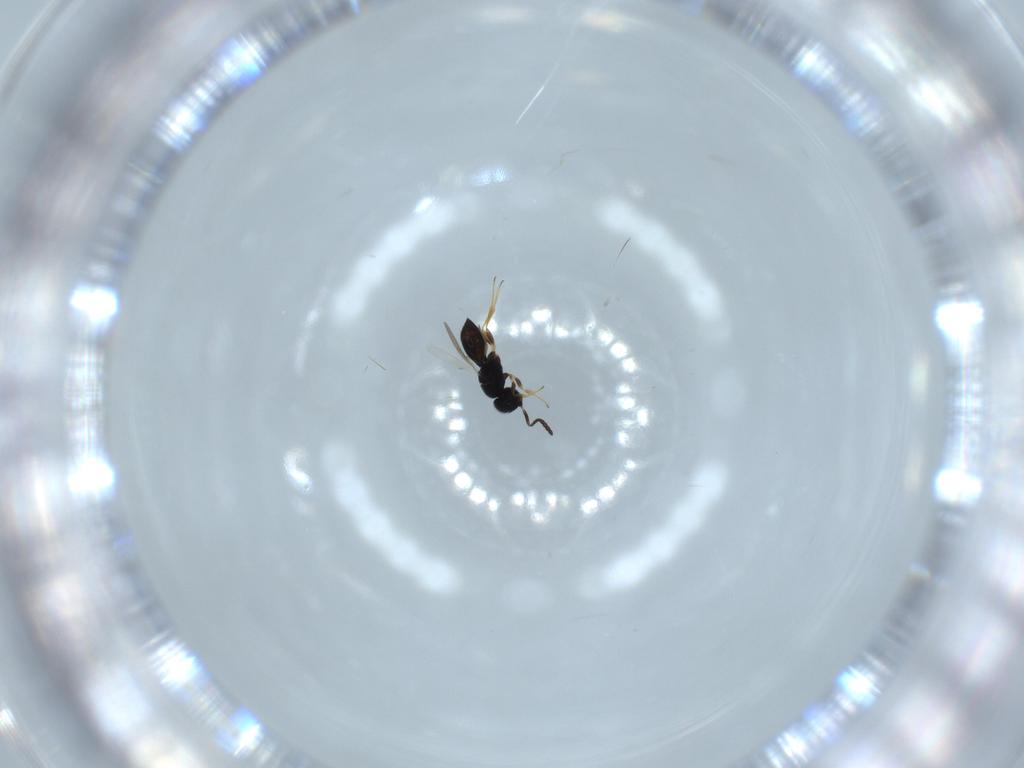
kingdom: Animalia
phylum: Arthropoda
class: Insecta
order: Hymenoptera
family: Scelionidae
